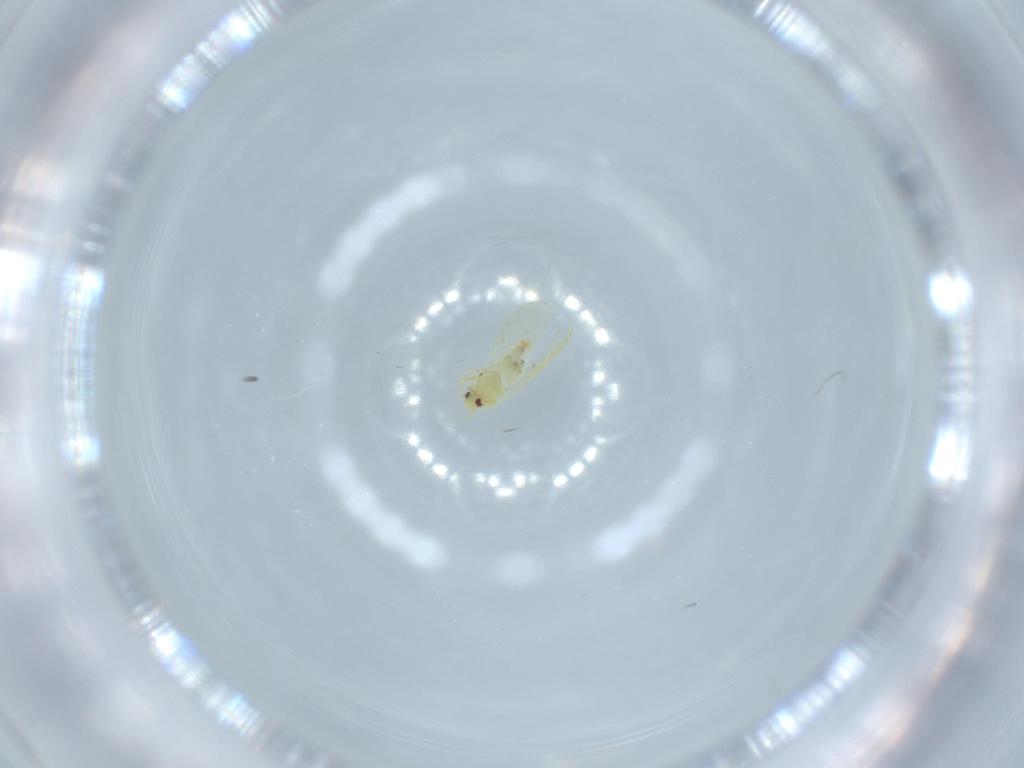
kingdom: Animalia
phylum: Arthropoda
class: Insecta
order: Hemiptera
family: Aleyrodidae
